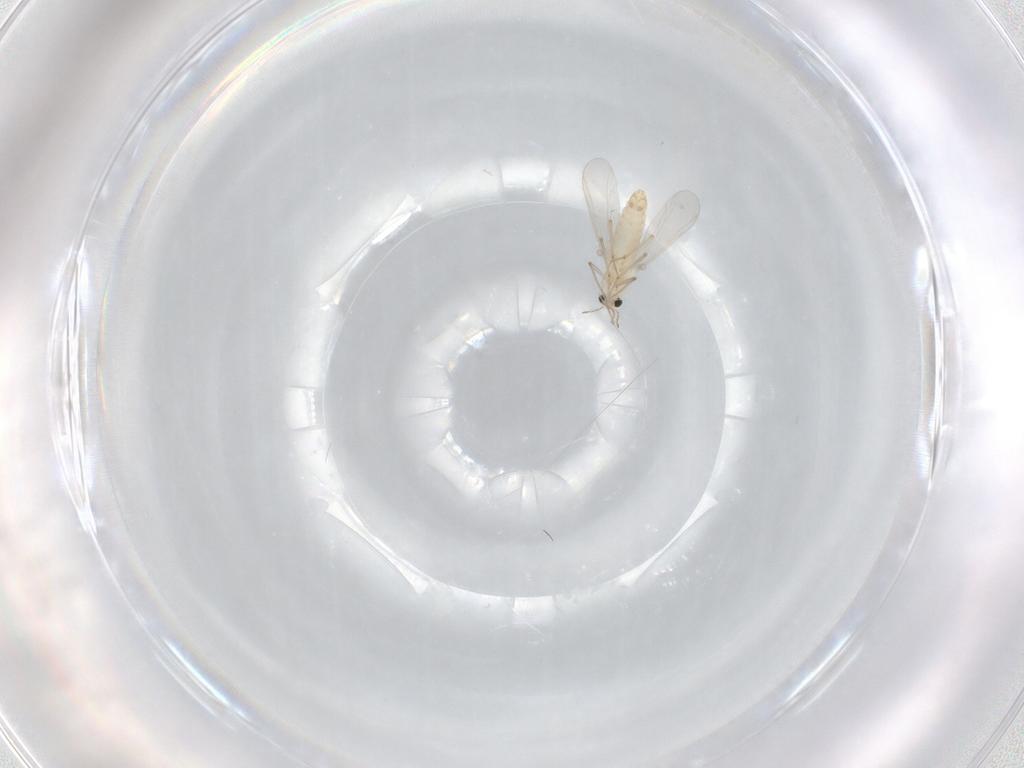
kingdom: Animalia
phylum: Arthropoda
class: Insecta
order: Diptera
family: Chironomidae
